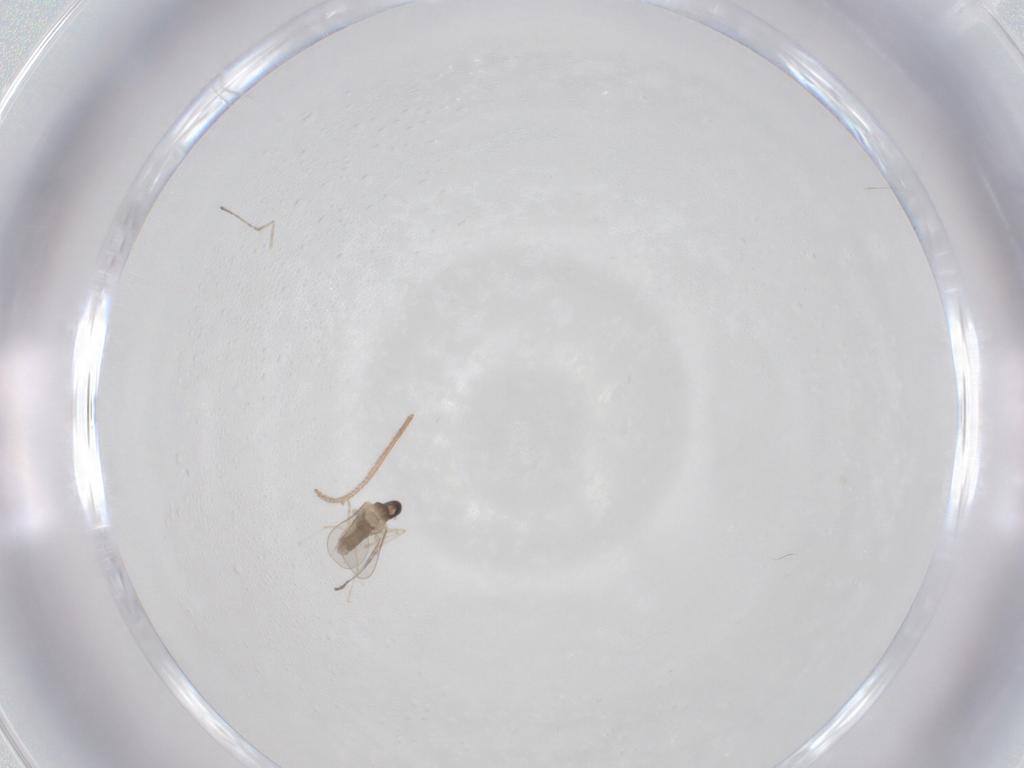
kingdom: Animalia
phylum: Arthropoda
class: Insecta
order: Diptera
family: Cecidomyiidae
